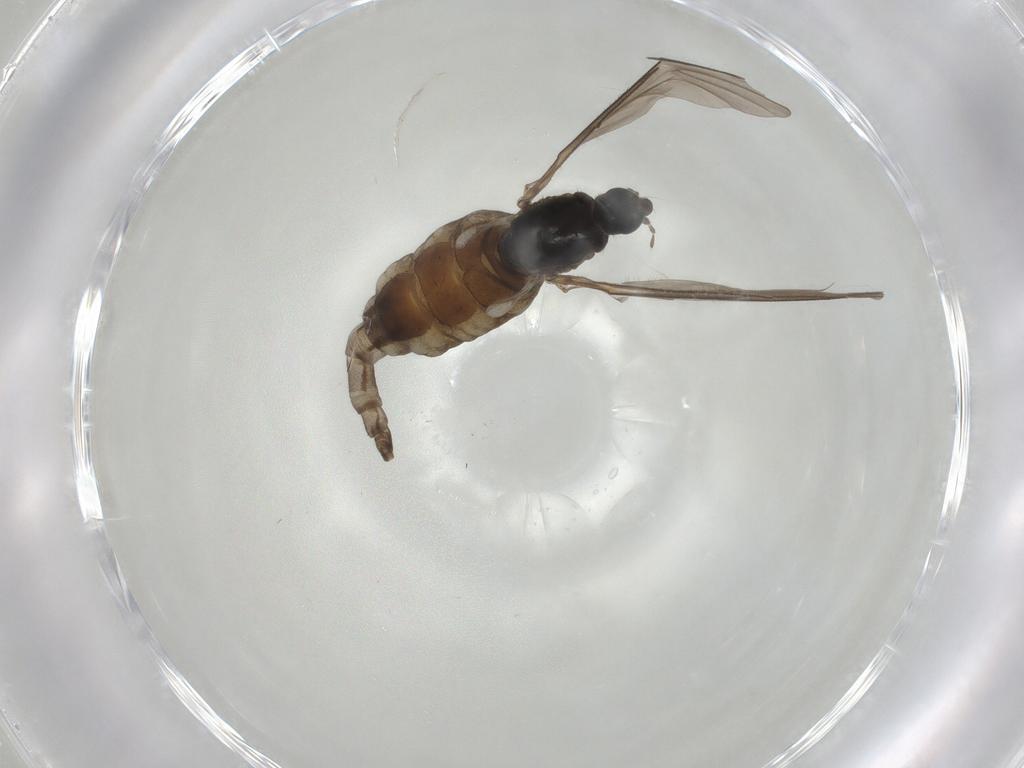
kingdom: Animalia
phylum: Arthropoda
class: Insecta
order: Diptera
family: Sciaridae
